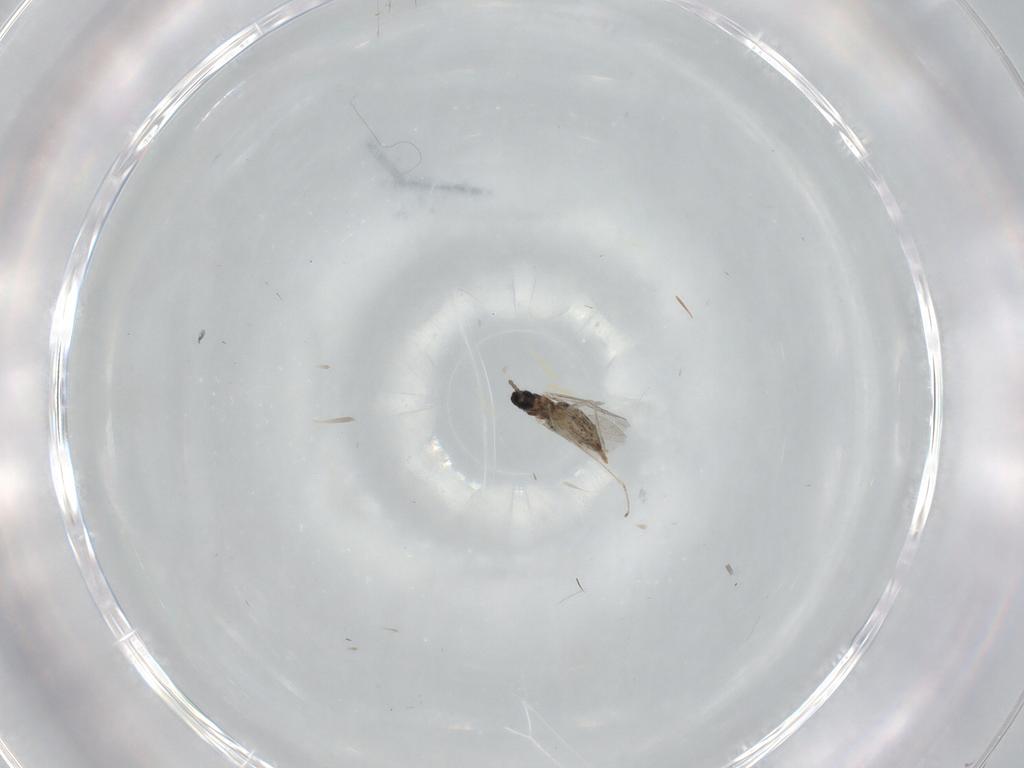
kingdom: Animalia
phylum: Arthropoda
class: Insecta
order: Diptera
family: Cecidomyiidae
